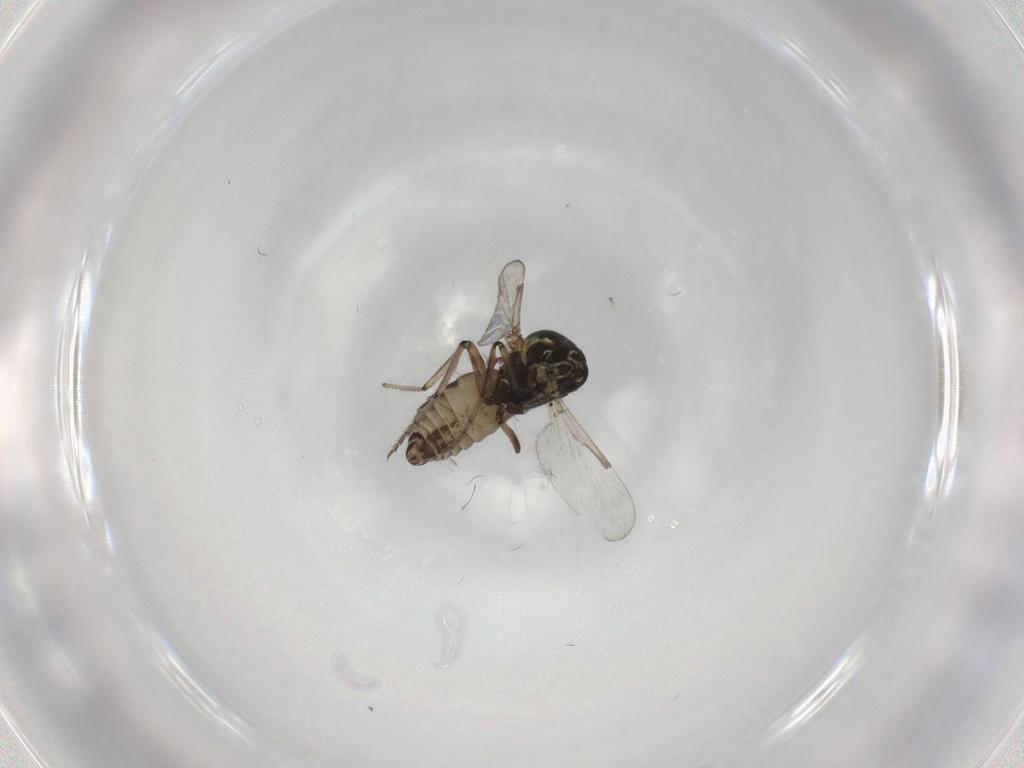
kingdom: Animalia
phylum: Arthropoda
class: Insecta
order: Diptera
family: Ceratopogonidae
